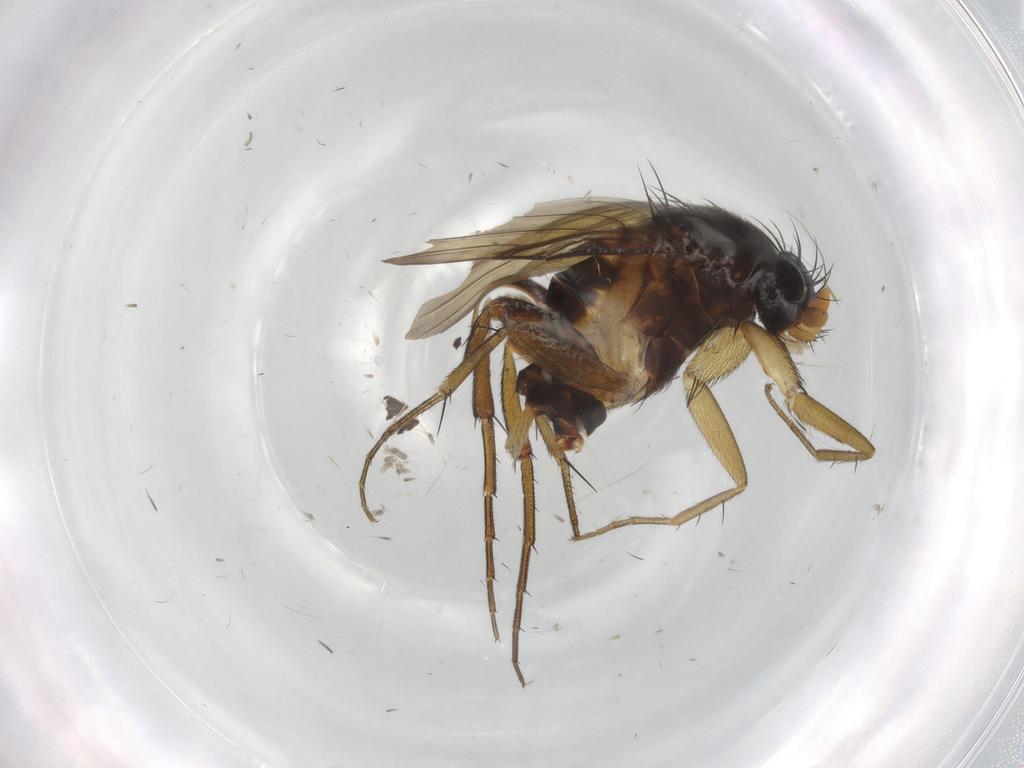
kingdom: Animalia
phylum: Arthropoda
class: Insecta
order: Diptera
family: Phoridae
